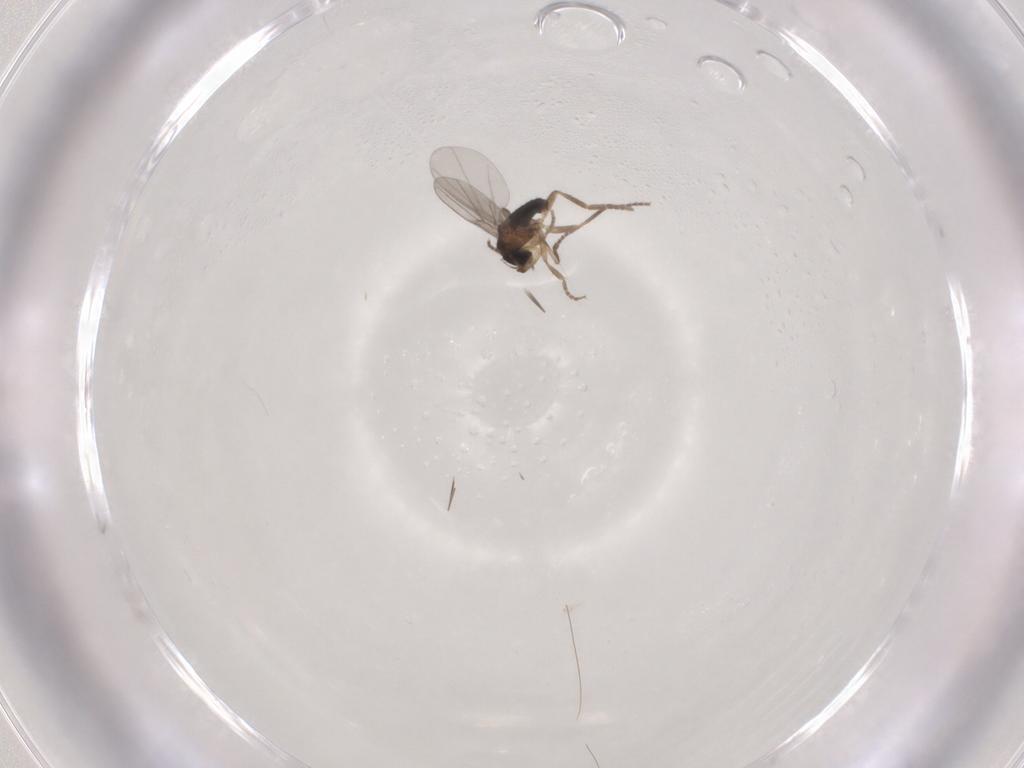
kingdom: Animalia
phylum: Arthropoda
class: Insecta
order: Diptera
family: Phoridae
